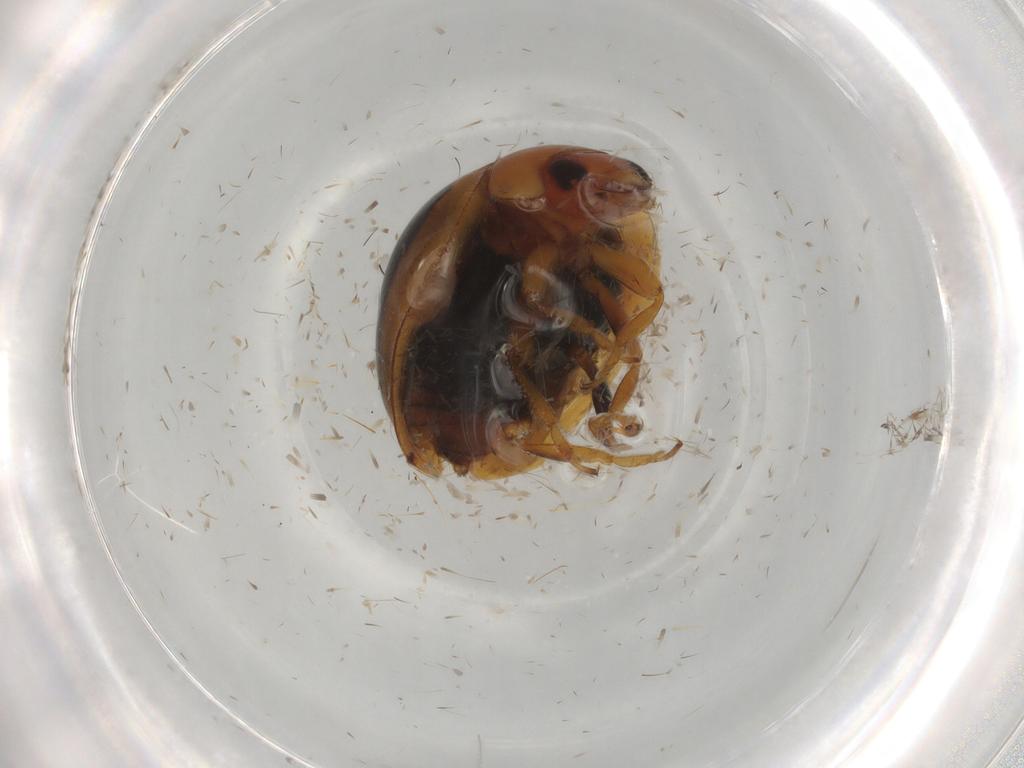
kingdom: Animalia
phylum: Arthropoda
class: Insecta
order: Coleoptera
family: Coccinellidae
